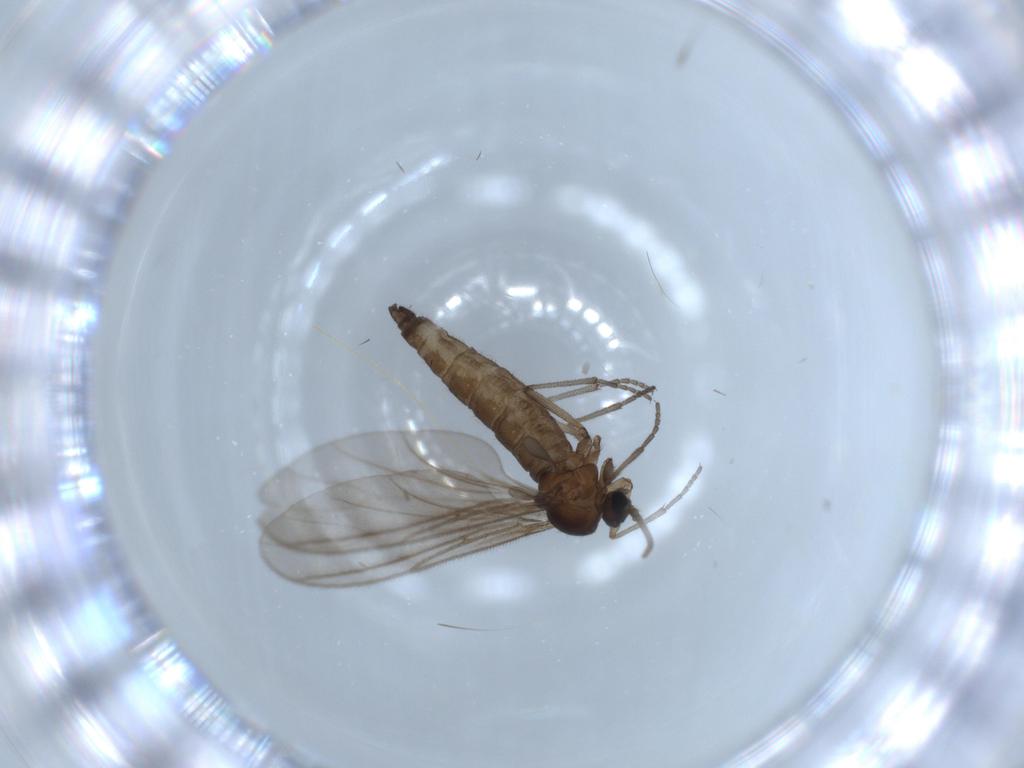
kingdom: Animalia
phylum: Arthropoda
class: Insecta
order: Diptera
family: Sciaridae
